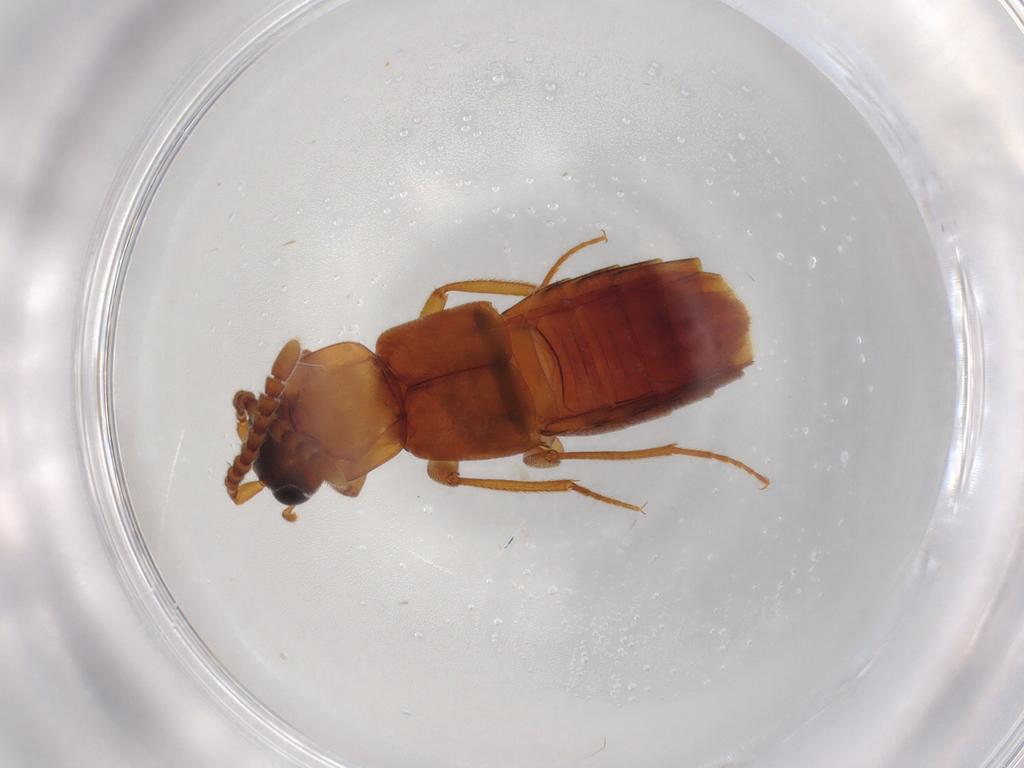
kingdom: Animalia
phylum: Arthropoda
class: Insecta
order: Coleoptera
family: Staphylinidae
